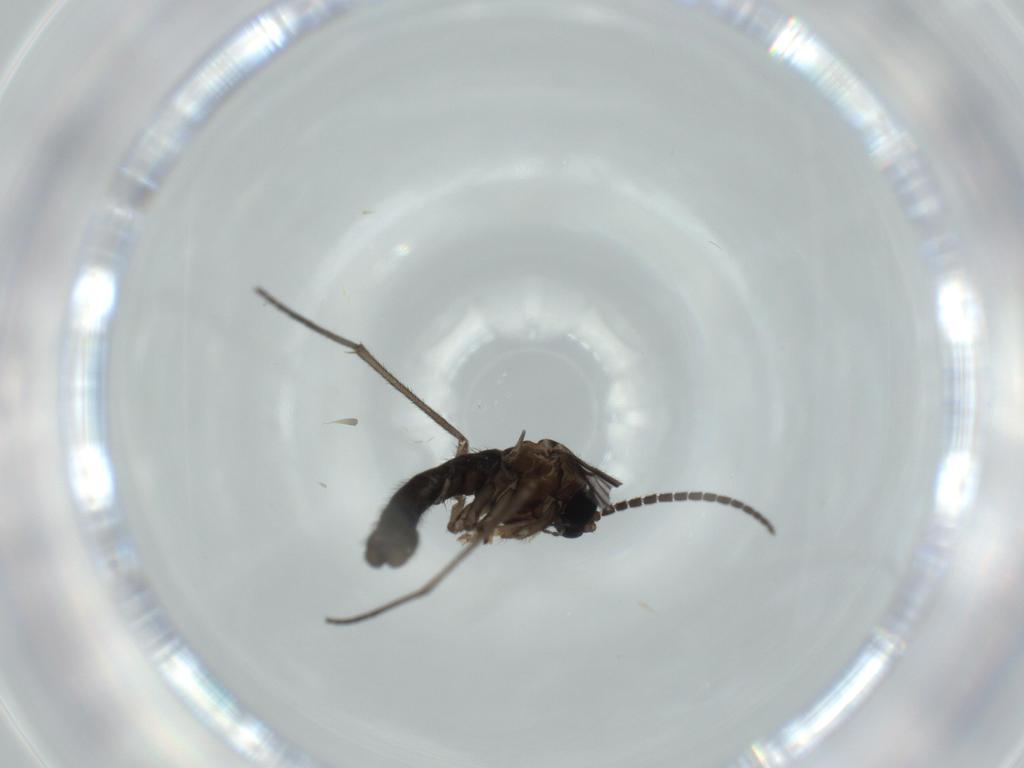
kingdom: Animalia
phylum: Arthropoda
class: Insecta
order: Diptera
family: Sciaridae
